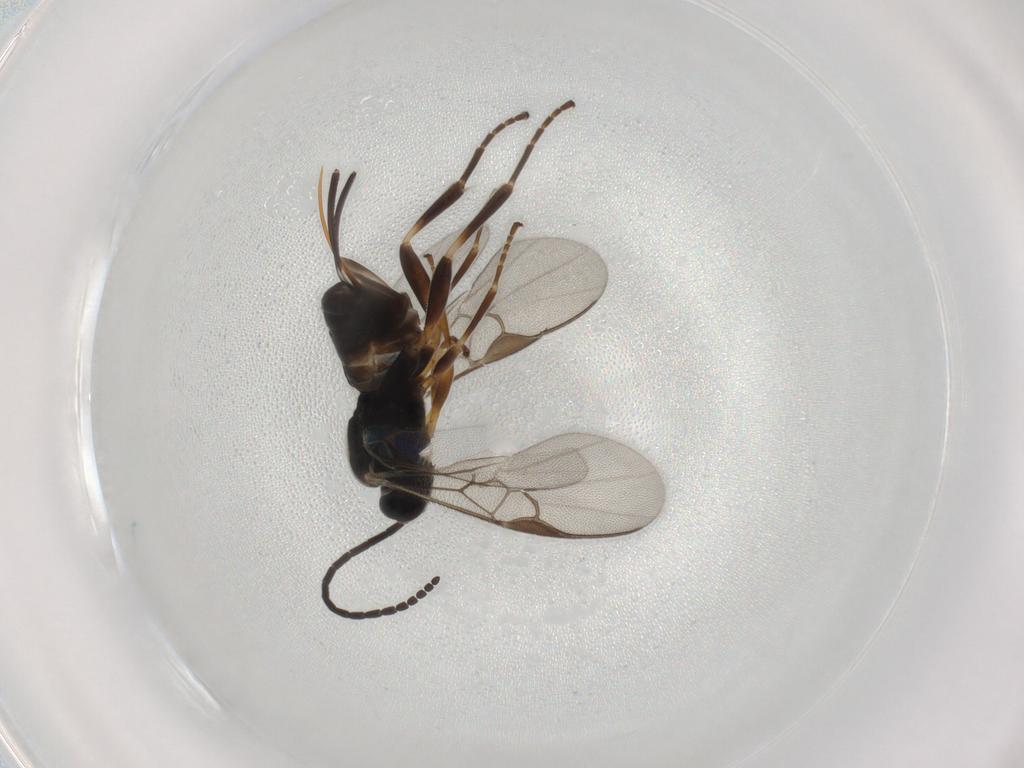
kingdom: Animalia
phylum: Arthropoda
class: Insecta
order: Hymenoptera
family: Braconidae
